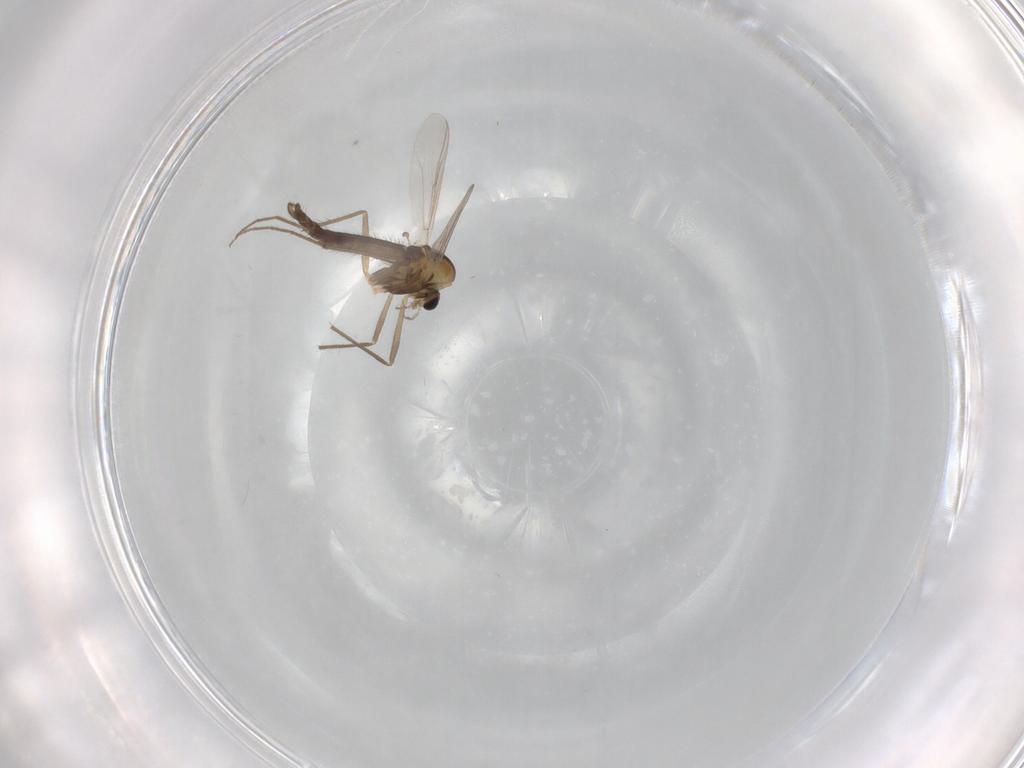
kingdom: Animalia
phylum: Arthropoda
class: Insecta
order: Diptera
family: Chironomidae
